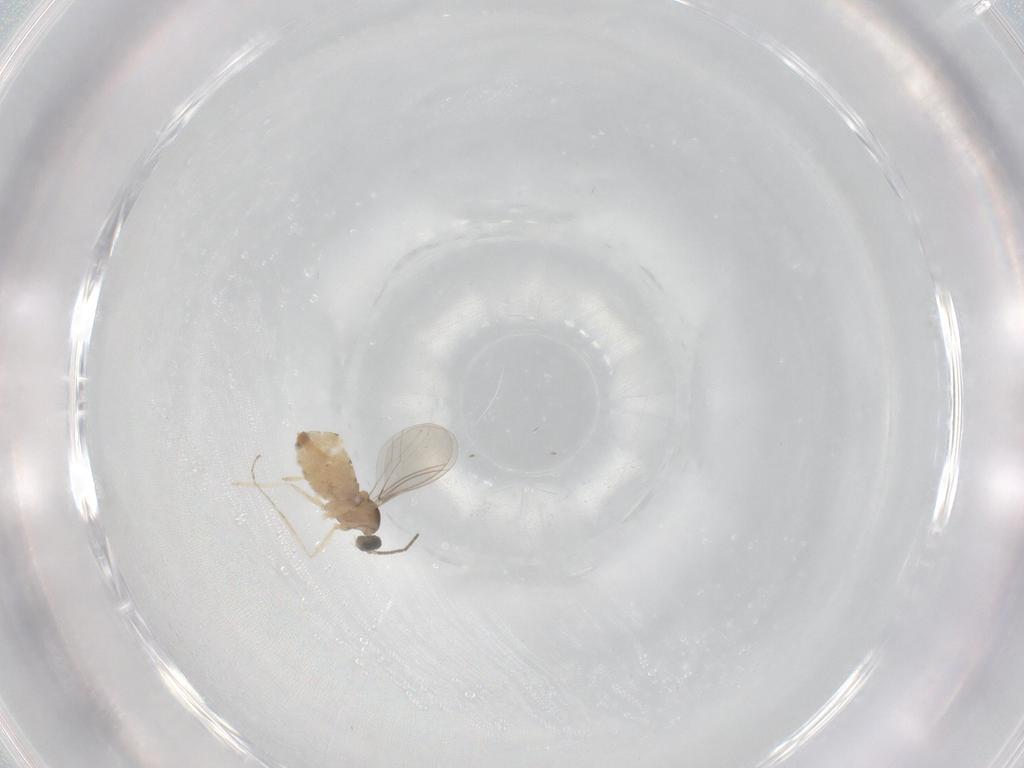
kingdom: Animalia
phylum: Arthropoda
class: Insecta
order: Diptera
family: Cecidomyiidae
